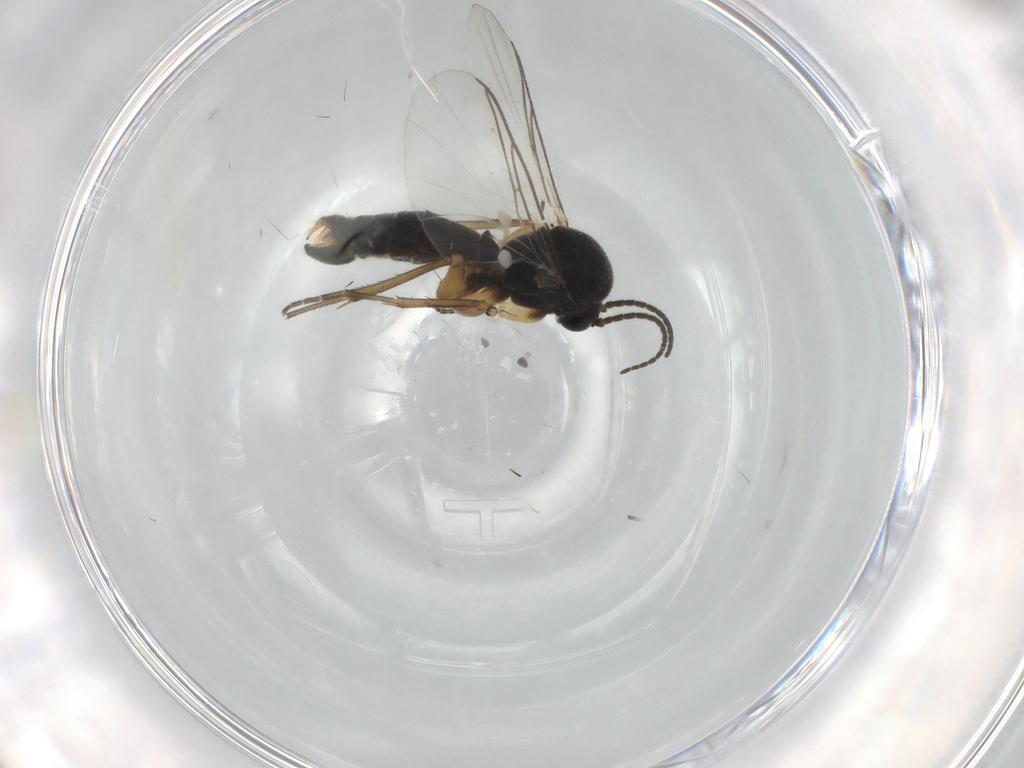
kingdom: Animalia
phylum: Arthropoda
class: Insecta
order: Diptera
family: Mycetophilidae
